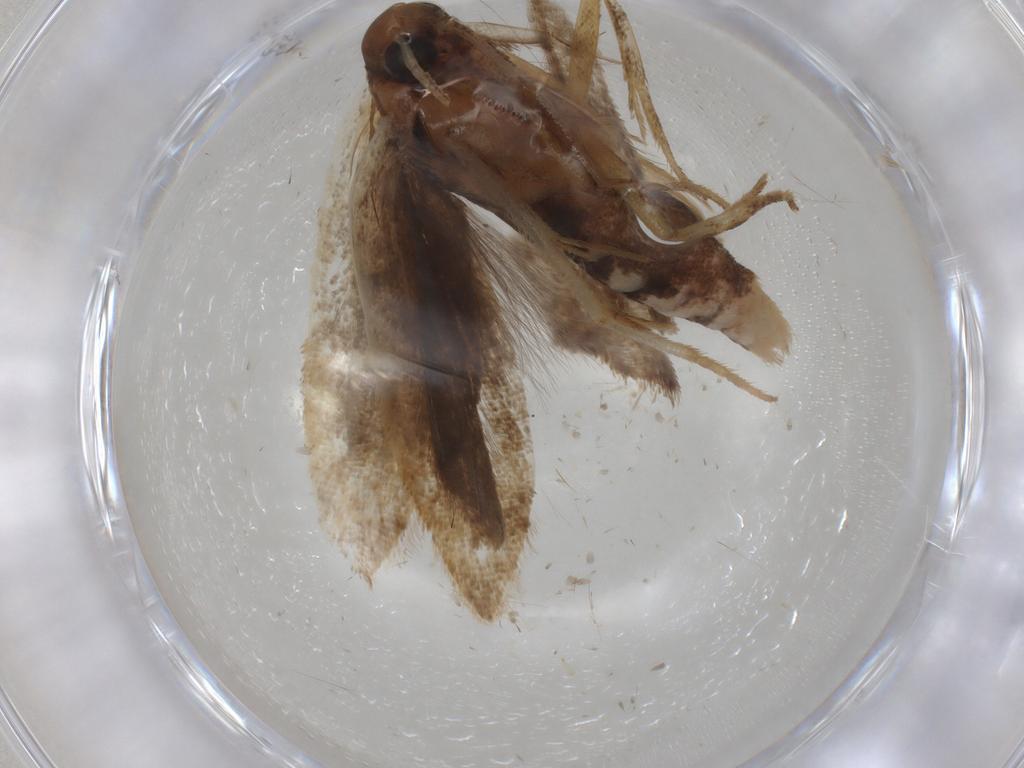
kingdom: Animalia
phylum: Arthropoda
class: Insecta
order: Lepidoptera
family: Gelechiidae
